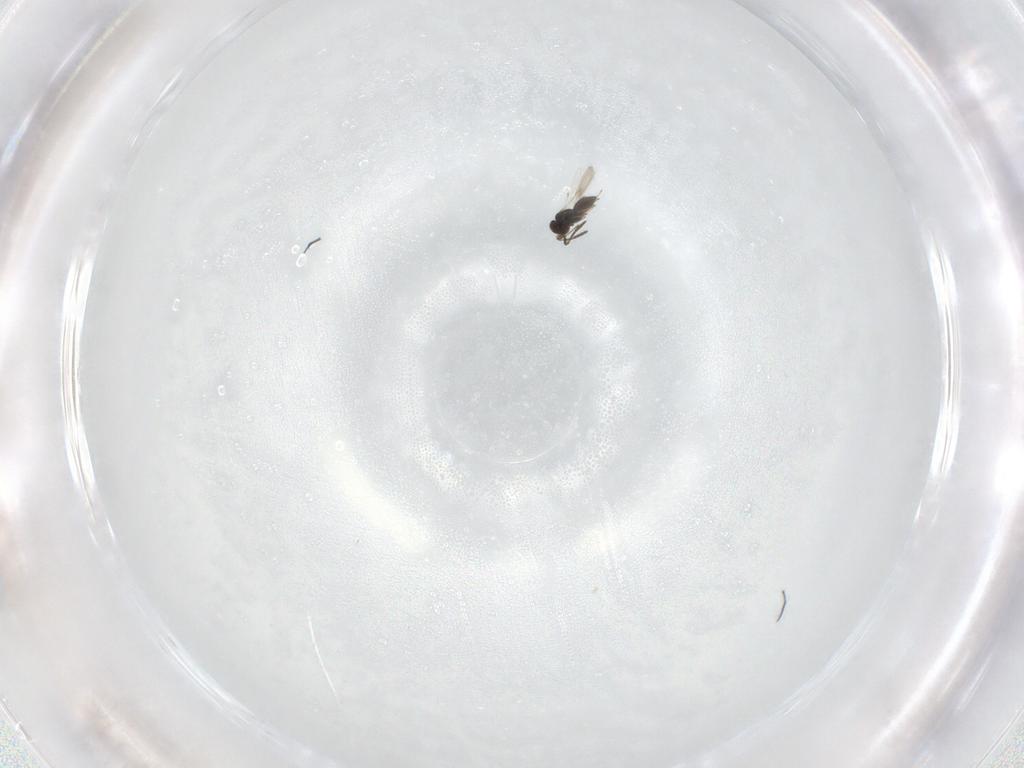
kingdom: Animalia
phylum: Arthropoda
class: Insecta
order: Hymenoptera
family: Scelionidae
